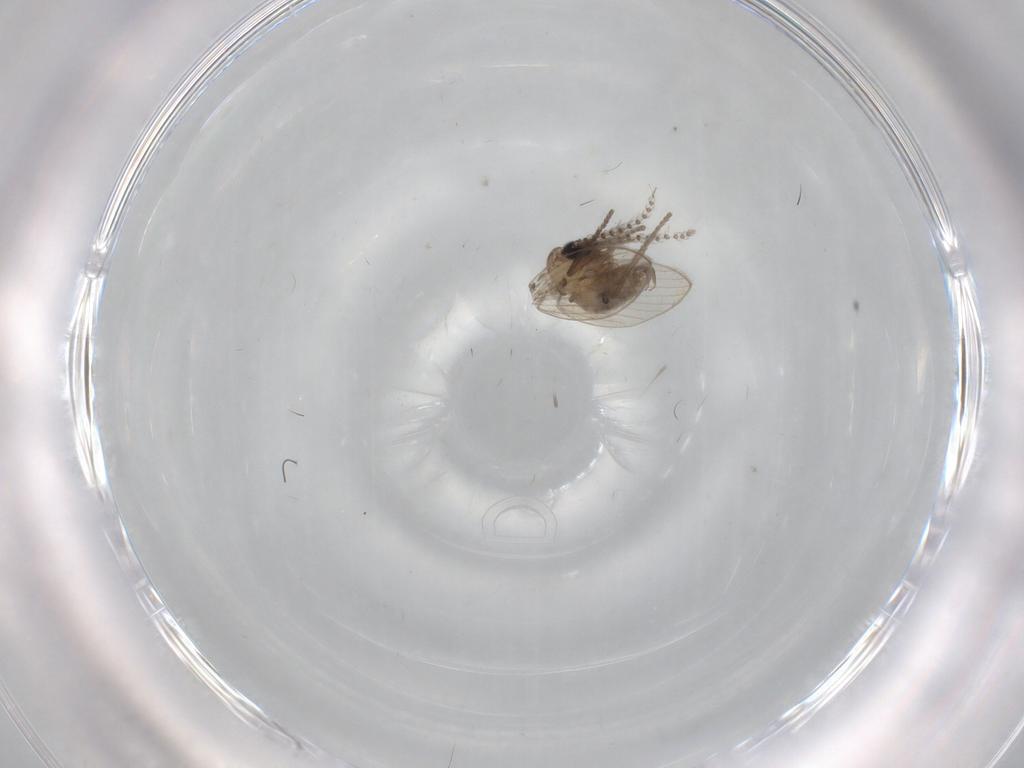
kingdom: Animalia
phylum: Arthropoda
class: Insecta
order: Diptera
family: Psychodidae
